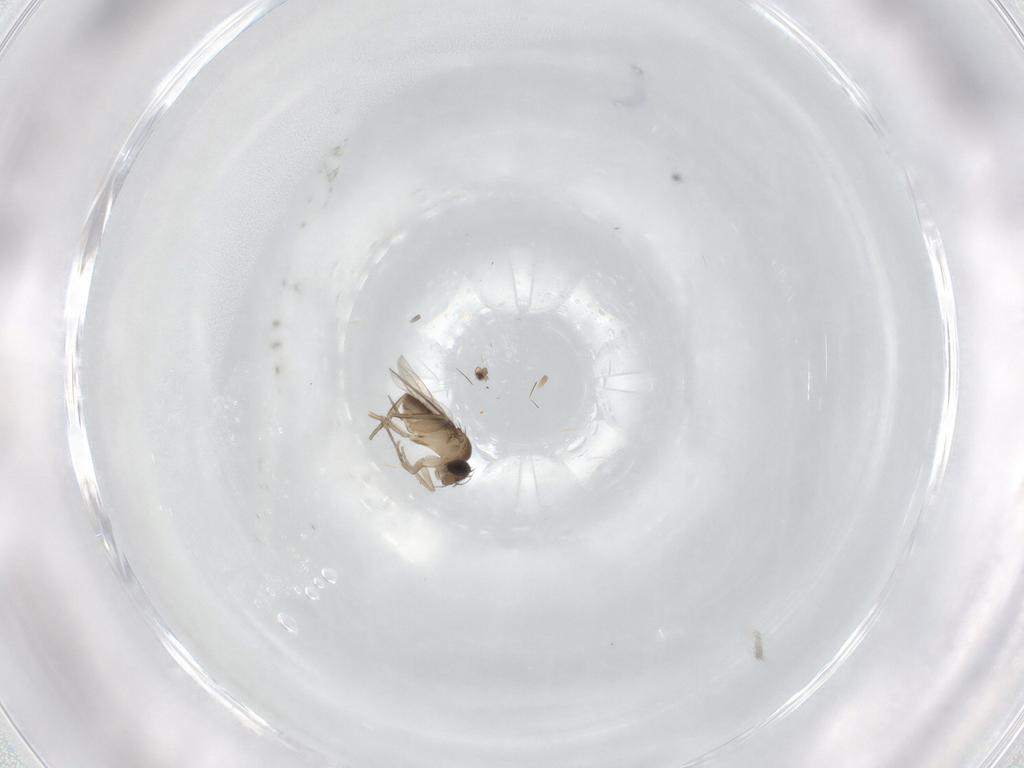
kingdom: Animalia
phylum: Arthropoda
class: Insecta
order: Diptera
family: Phoridae
